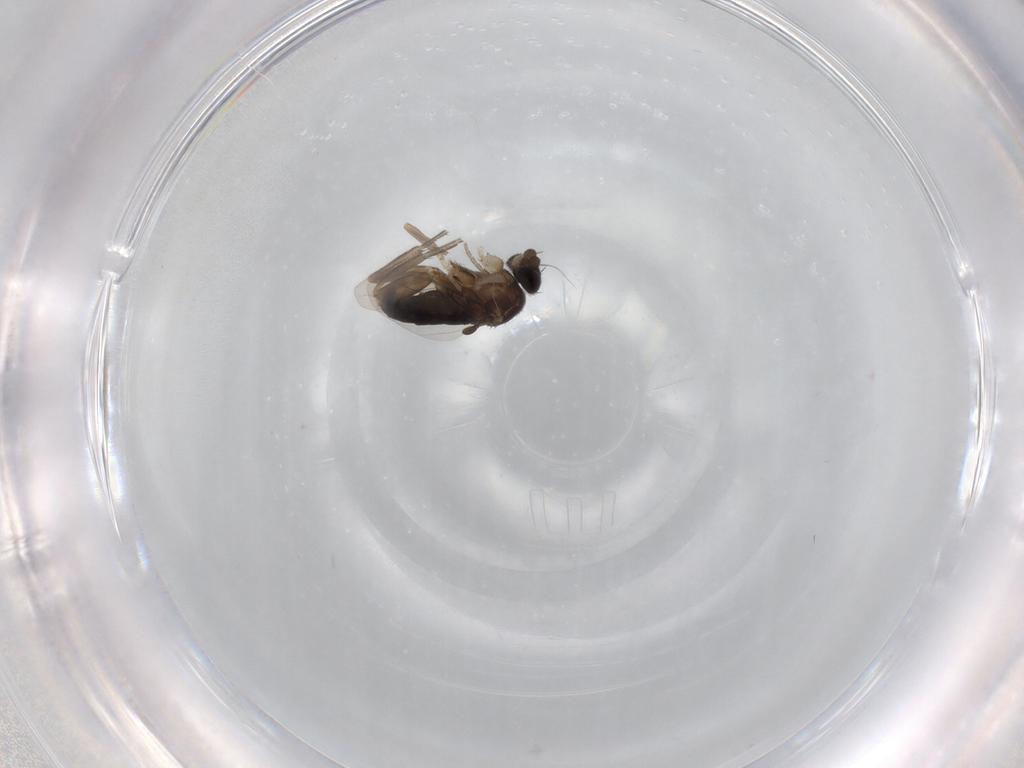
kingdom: Animalia
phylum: Arthropoda
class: Insecta
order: Diptera
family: Phoridae
